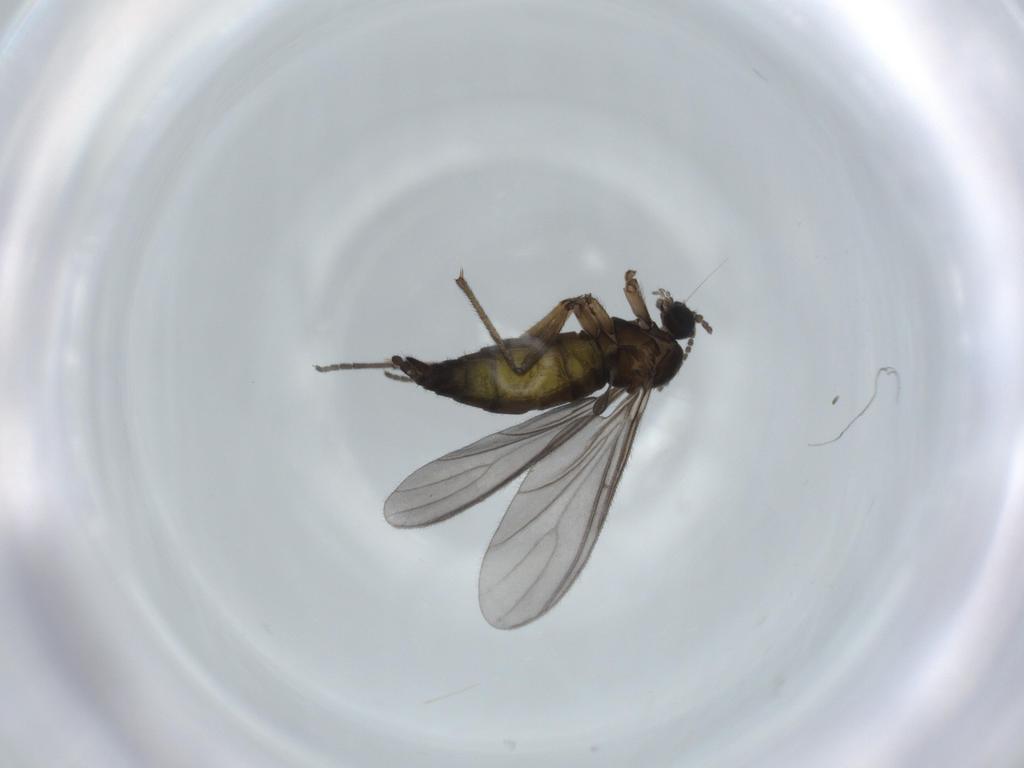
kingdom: Animalia
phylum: Arthropoda
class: Insecta
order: Diptera
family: Sciaridae
